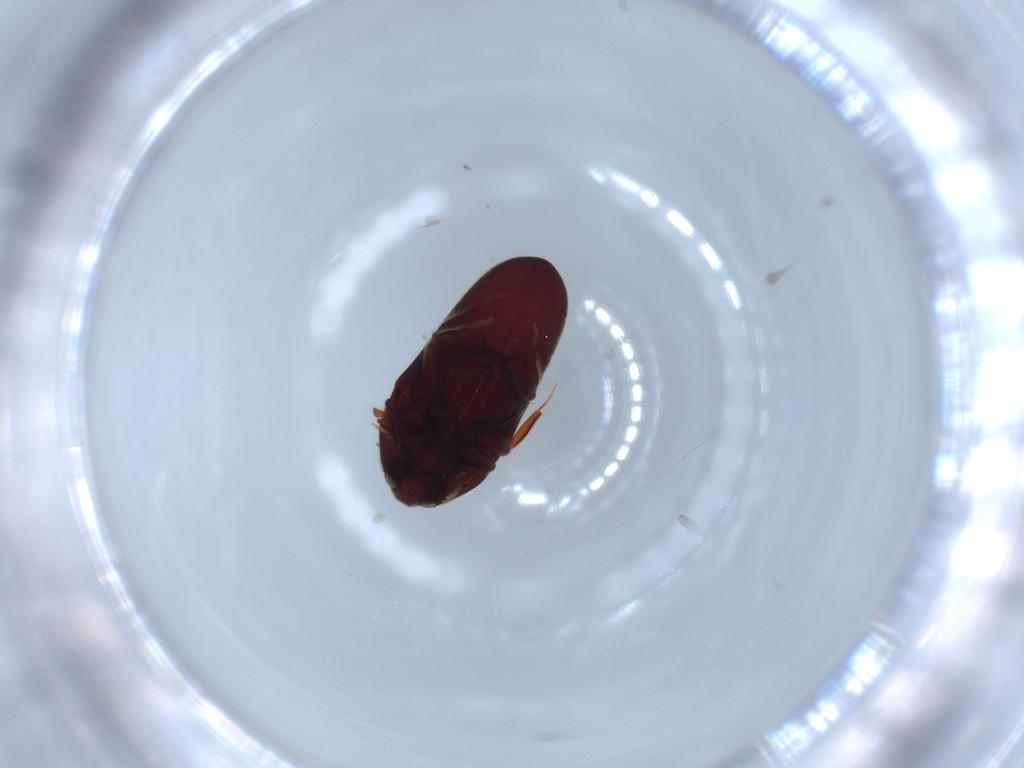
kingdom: Animalia
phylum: Arthropoda
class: Insecta
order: Coleoptera
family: Throscidae
